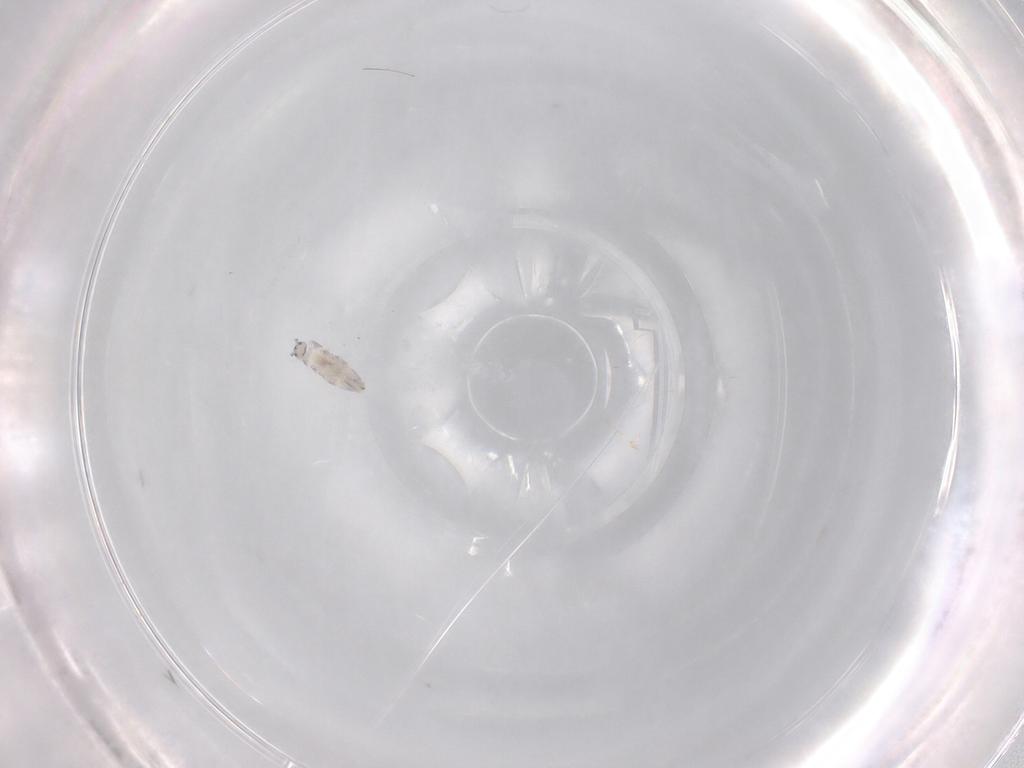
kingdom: Animalia
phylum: Arthropoda
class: Collembola
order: Entomobryomorpha
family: Entomobryidae
